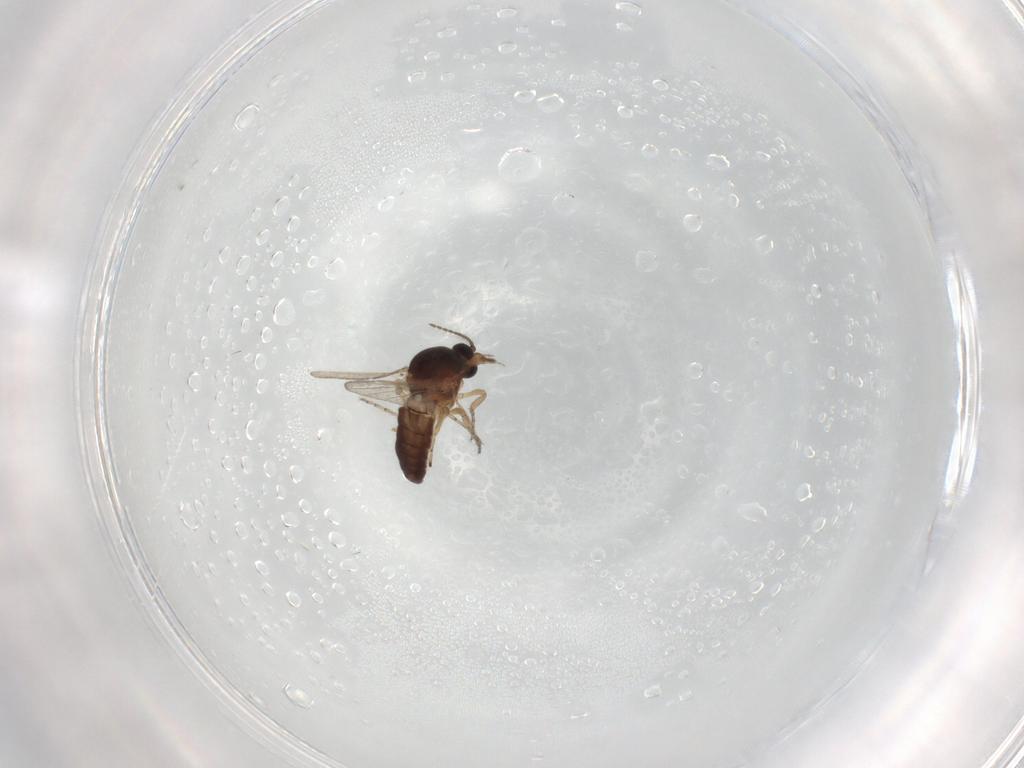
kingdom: Animalia
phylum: Arthropoda
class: Insecta
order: Diptera
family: Ceratopogonidae
